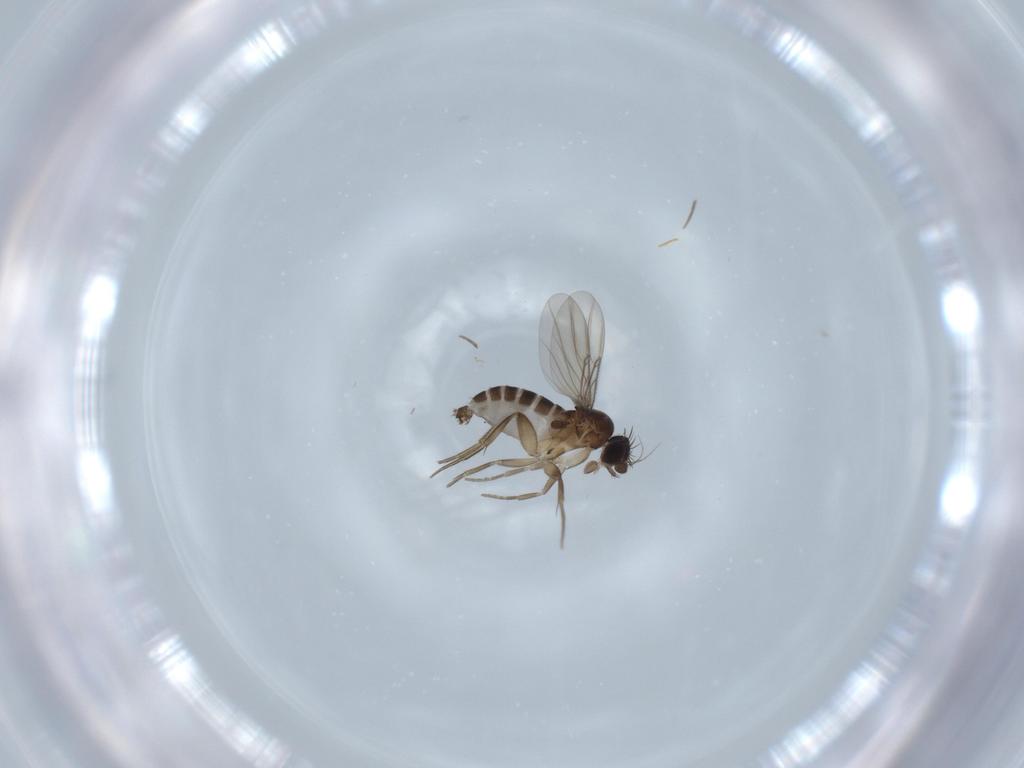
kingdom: Animalia
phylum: Arthropoda
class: Insecta
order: Diptera
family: Phoridae
